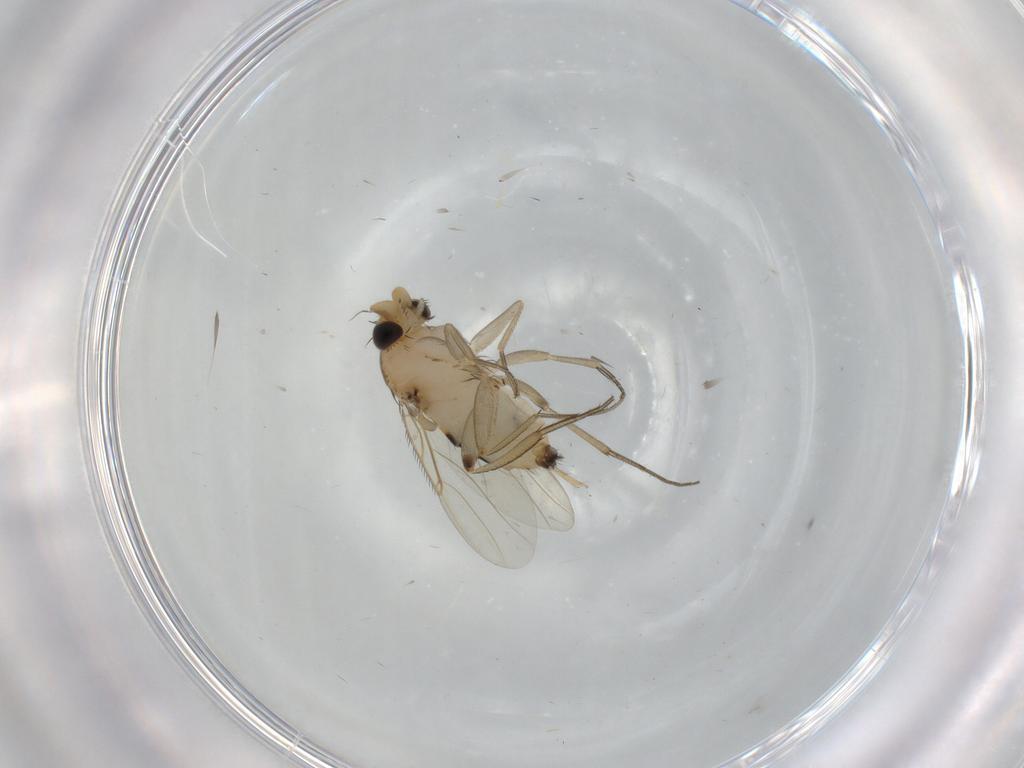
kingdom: Animalia
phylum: Arthropoda
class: Insecta
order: Diptera
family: Phoridae
